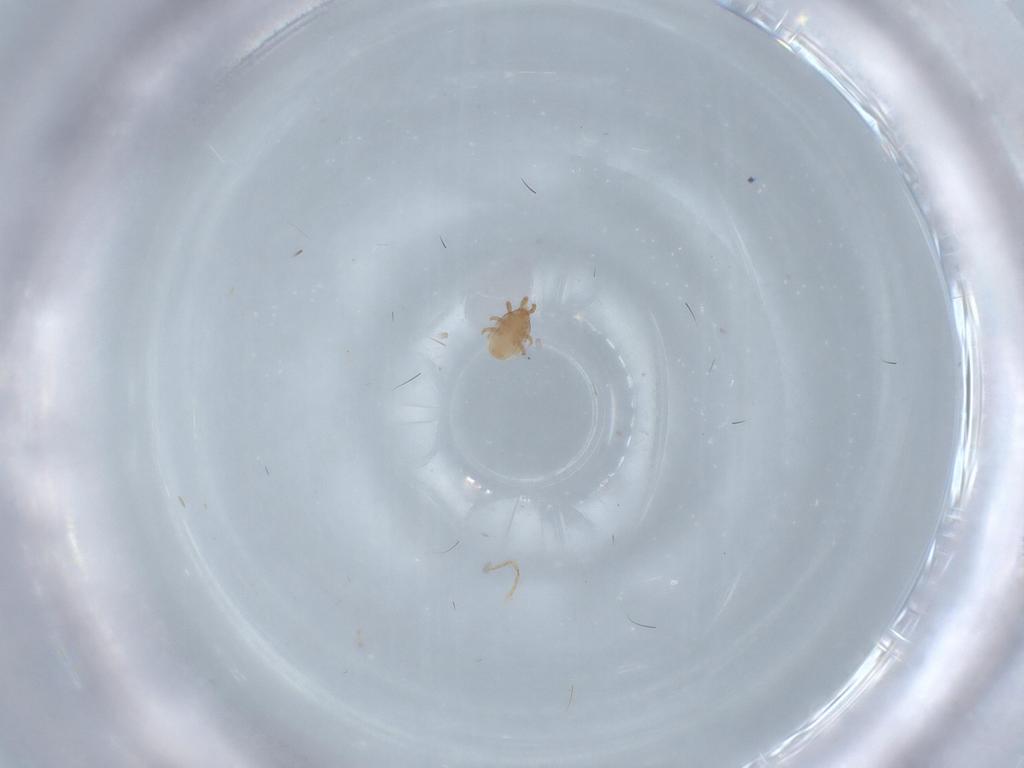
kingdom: Animalia
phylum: Arthropoda
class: Arachnida
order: Mesostigmata
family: Dinychidae
